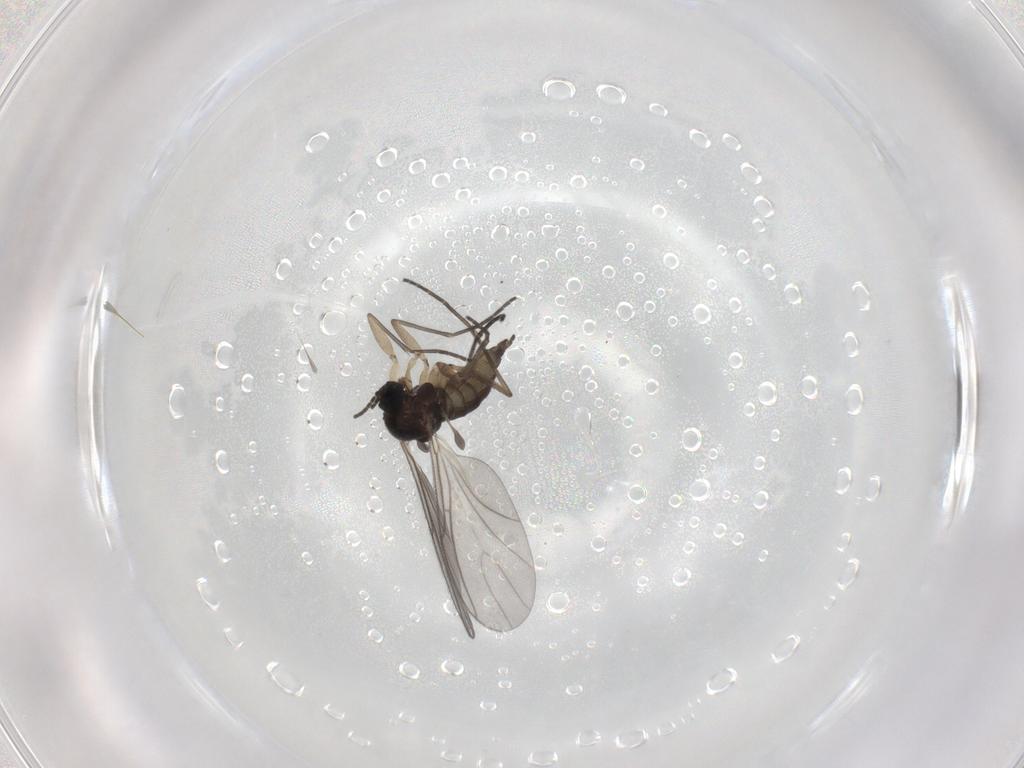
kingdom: Animalia
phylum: Arthropoda
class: Insecta
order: Diptera
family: Sciaridae
